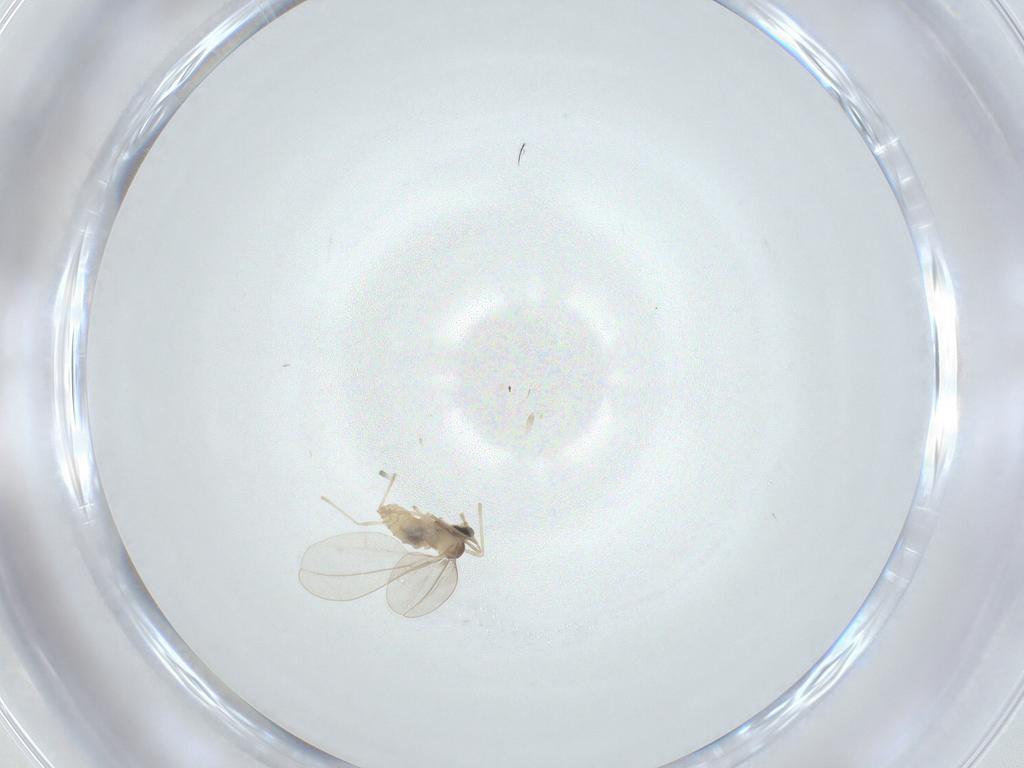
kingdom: Animalia
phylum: Arthropoda
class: Insecta
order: Diptera
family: Cecidomyiidae
